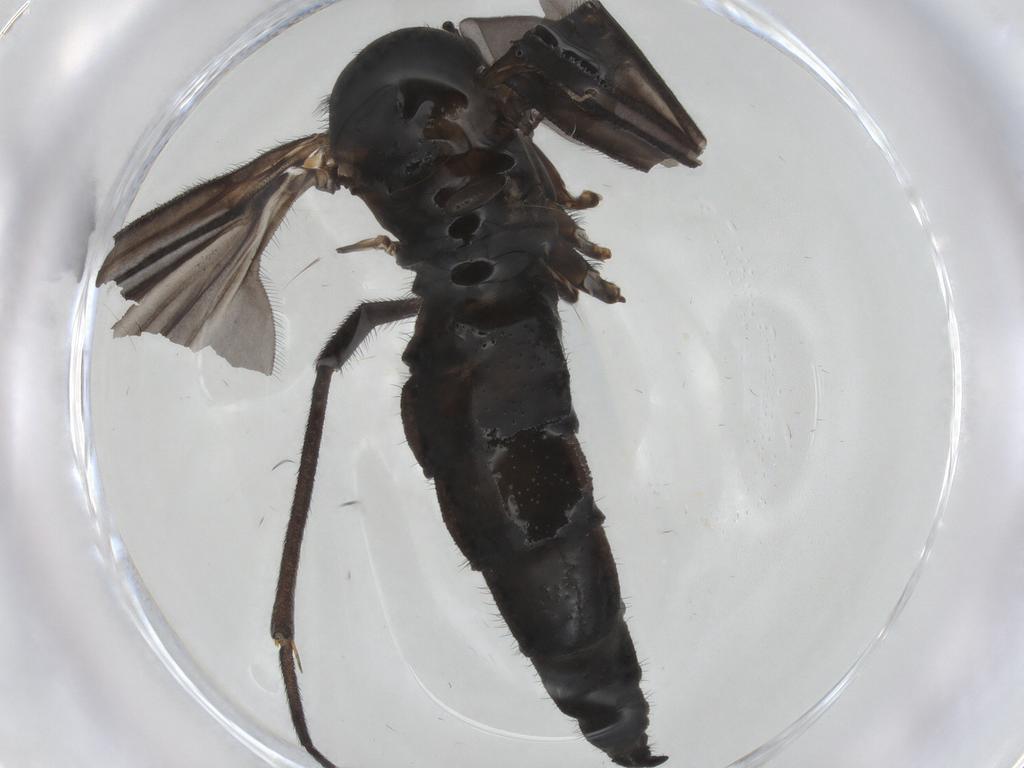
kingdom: Animalia
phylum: Arthropoda
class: Insecta
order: Diptera
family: Sciaridae
